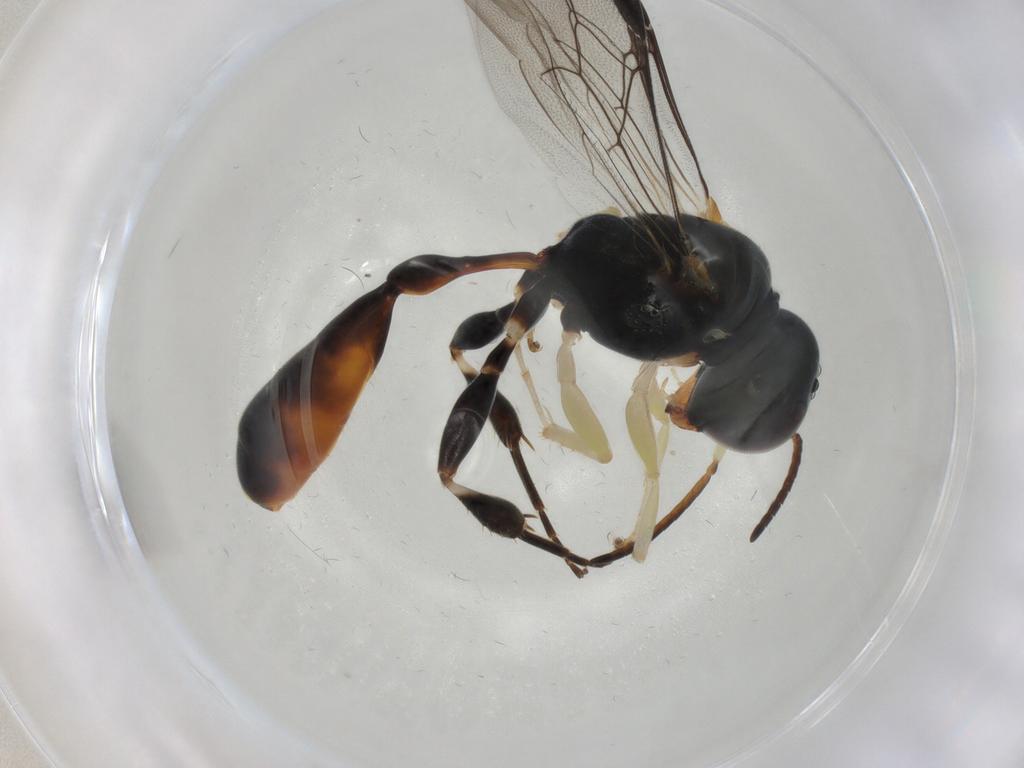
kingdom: Animalia
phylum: Arthropoda
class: Insecta
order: Hymenoptera
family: Crabronidae
